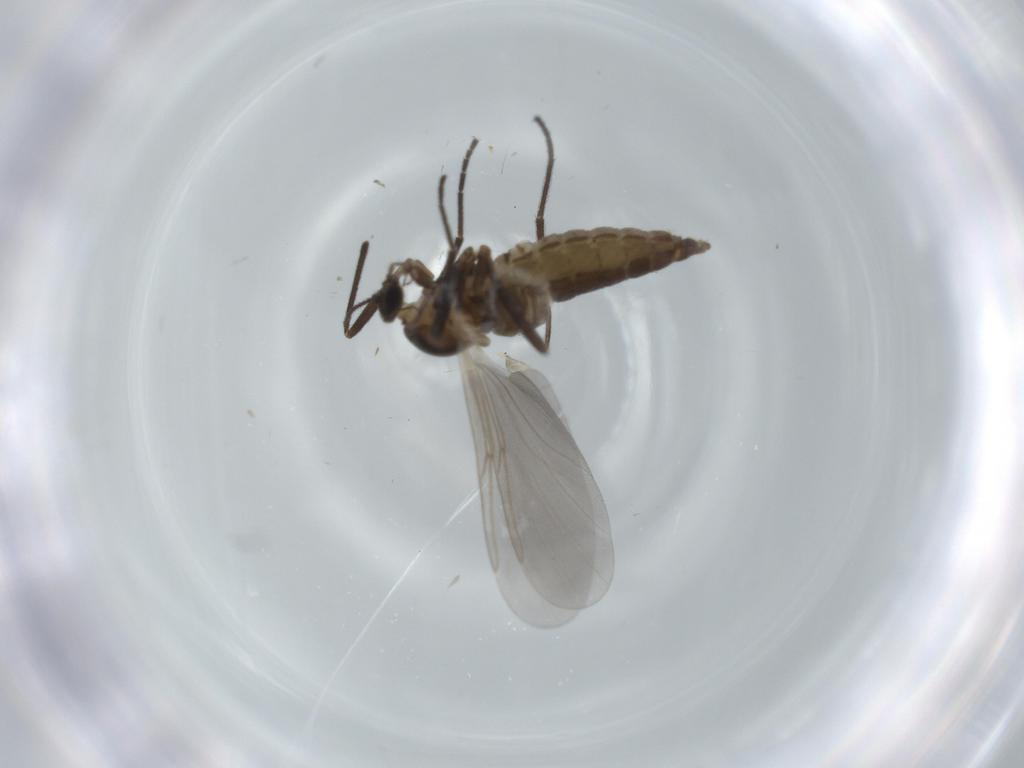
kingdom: Animalia
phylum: Arthropoda
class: Insecta
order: Diptera
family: Cecidomyiidae
